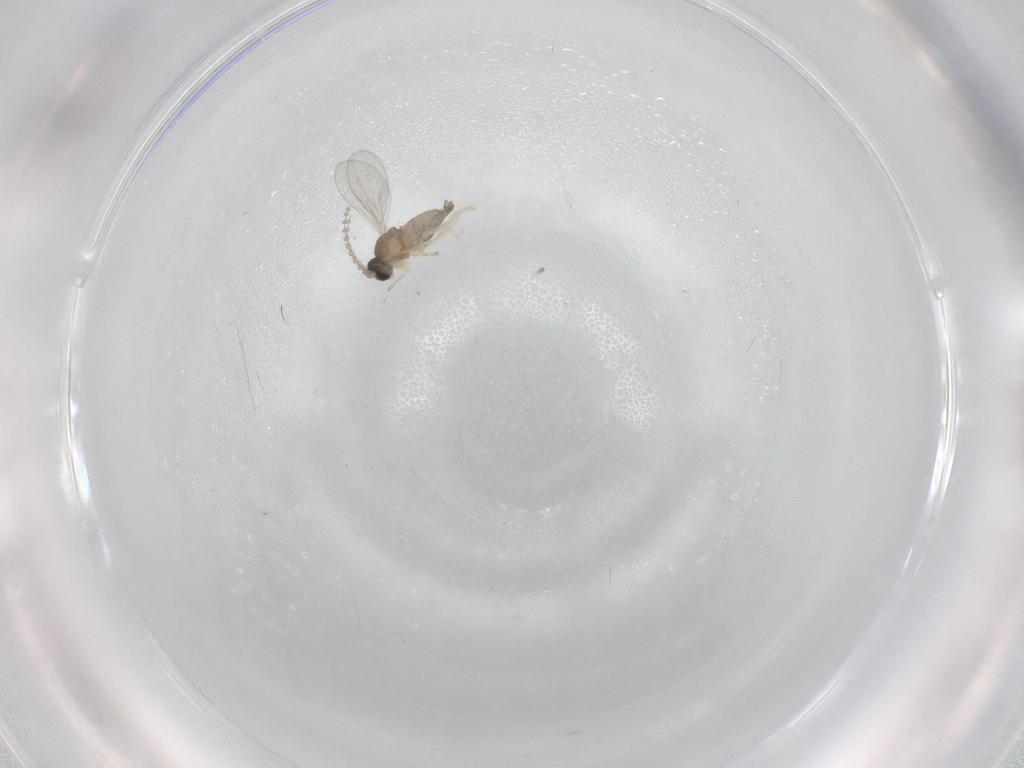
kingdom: Animalia
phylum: Arthropoda
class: Insecta
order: Diptera
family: Cecidomyiidae
